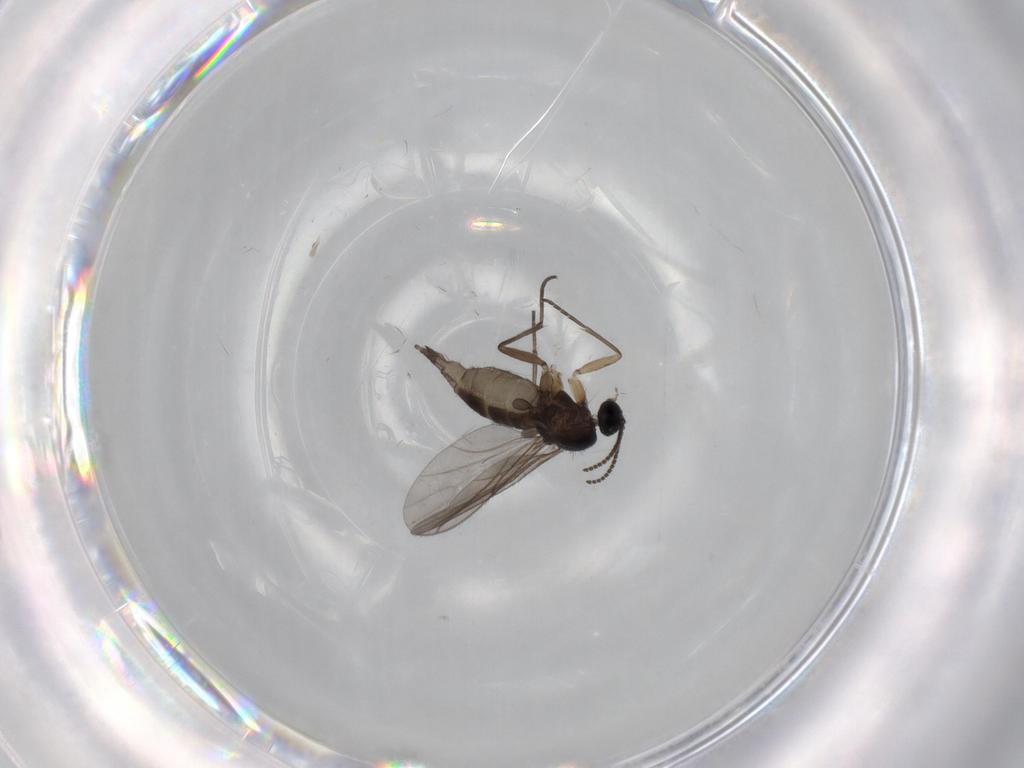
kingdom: Animalia
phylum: Arthropoda
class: Insecta
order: Diptera
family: Sciaridae
